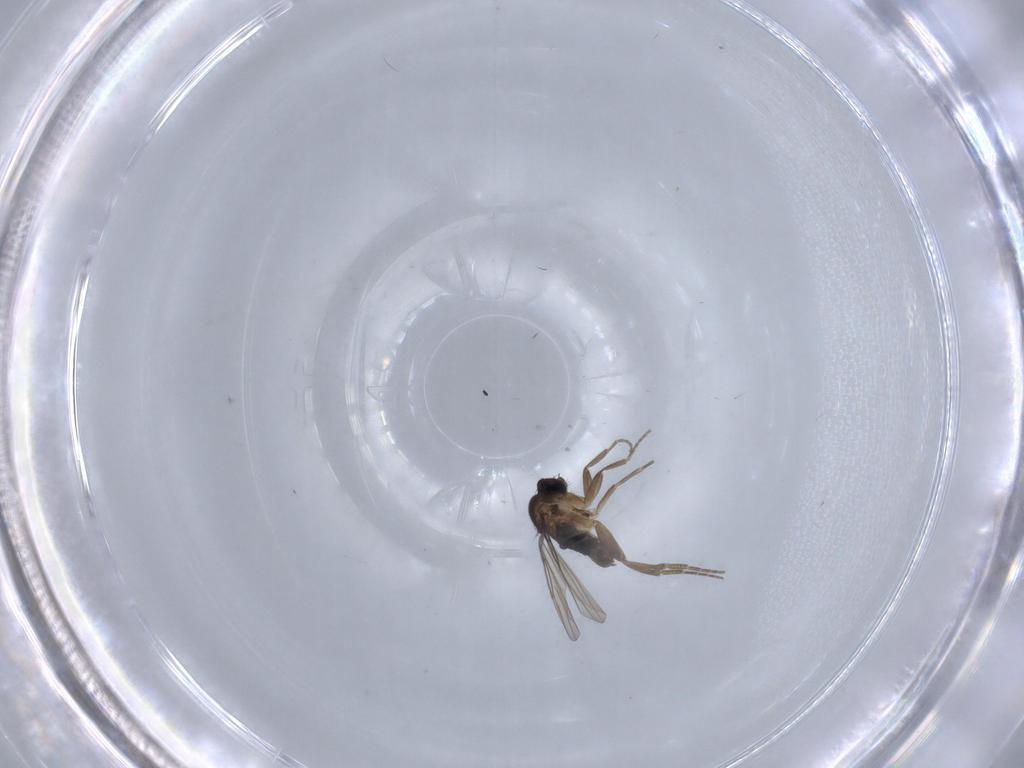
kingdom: Animalia
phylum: Arthropoda
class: Insecta
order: Diptera
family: Phoridae
